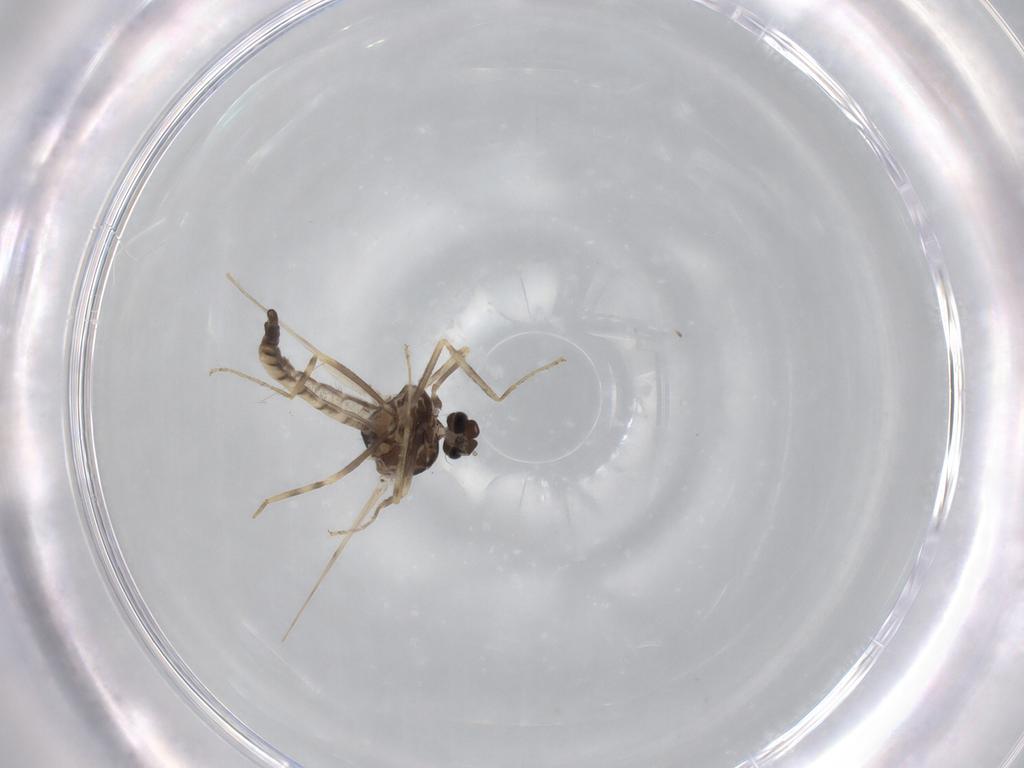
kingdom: Animalia
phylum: Arthropoda
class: Insecta
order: Diptera
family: Ceratopogonidae
